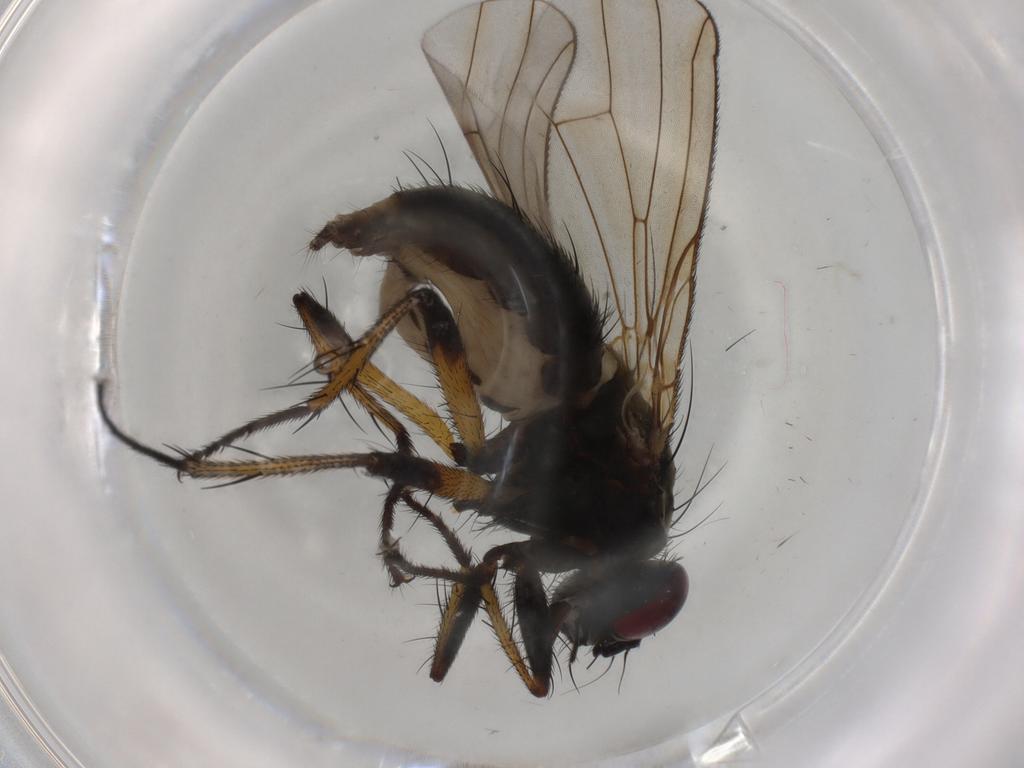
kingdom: Animalia
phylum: Arthropoda
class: Insecta
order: Diptera
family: Muscidae
